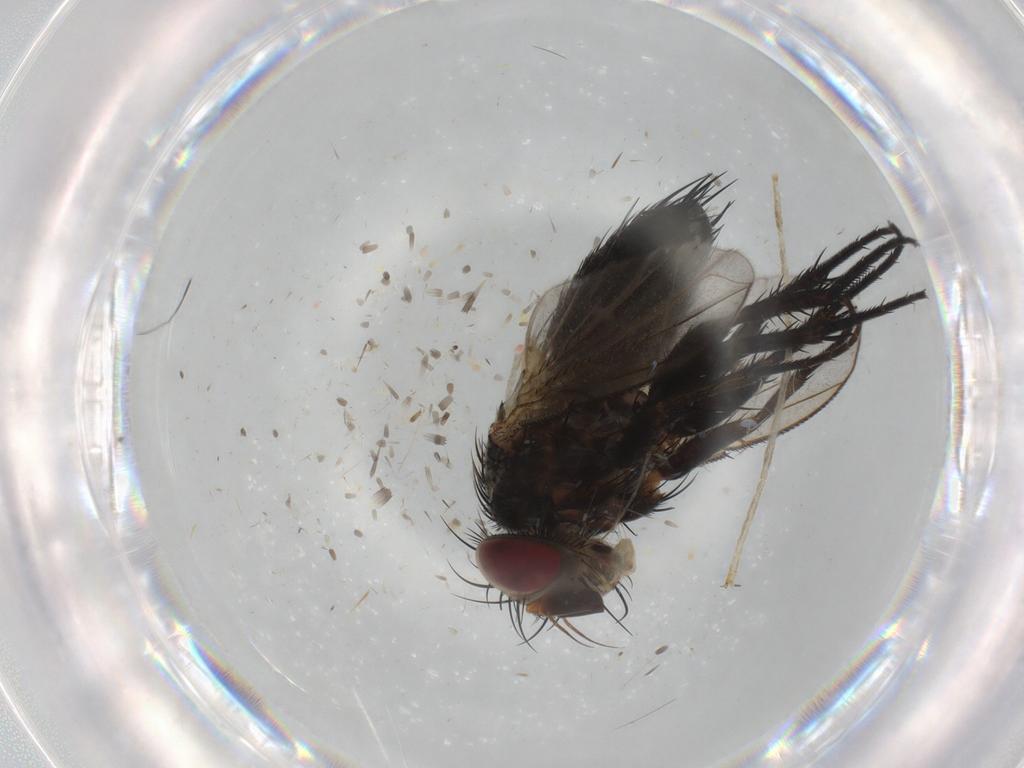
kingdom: Animalia
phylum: Arthropoda
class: Insecta
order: Diptera
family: Tachinidae
